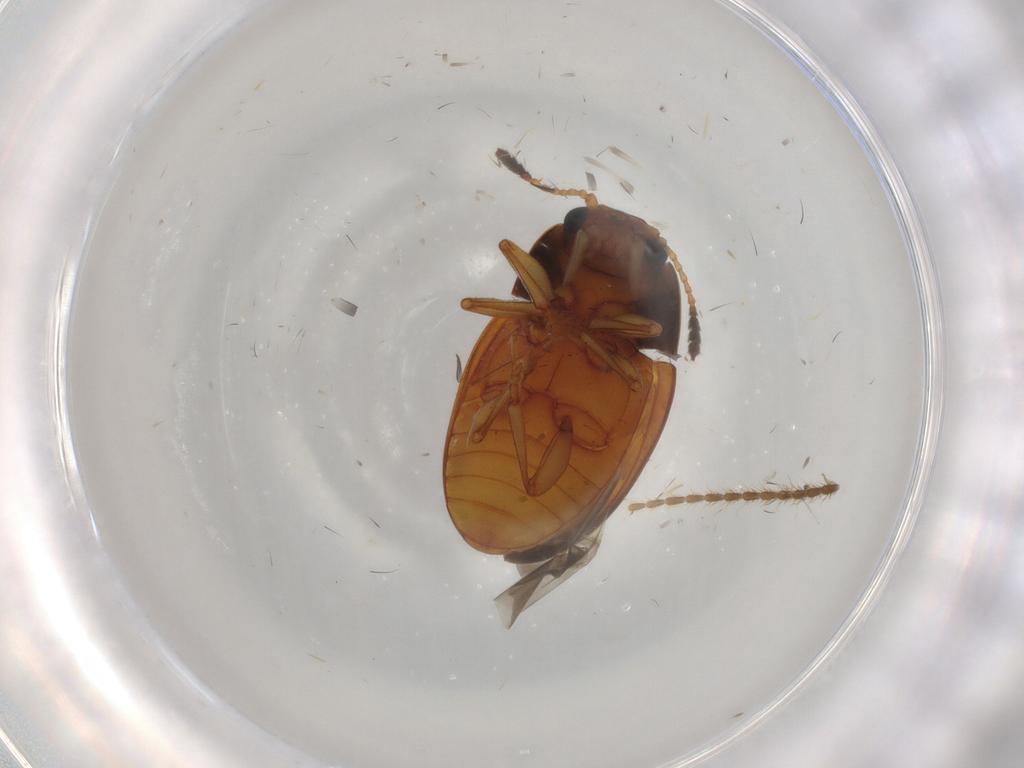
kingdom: Animalia
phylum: Arthropoda
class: Insecta
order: Coleoptera
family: Erotylidae
